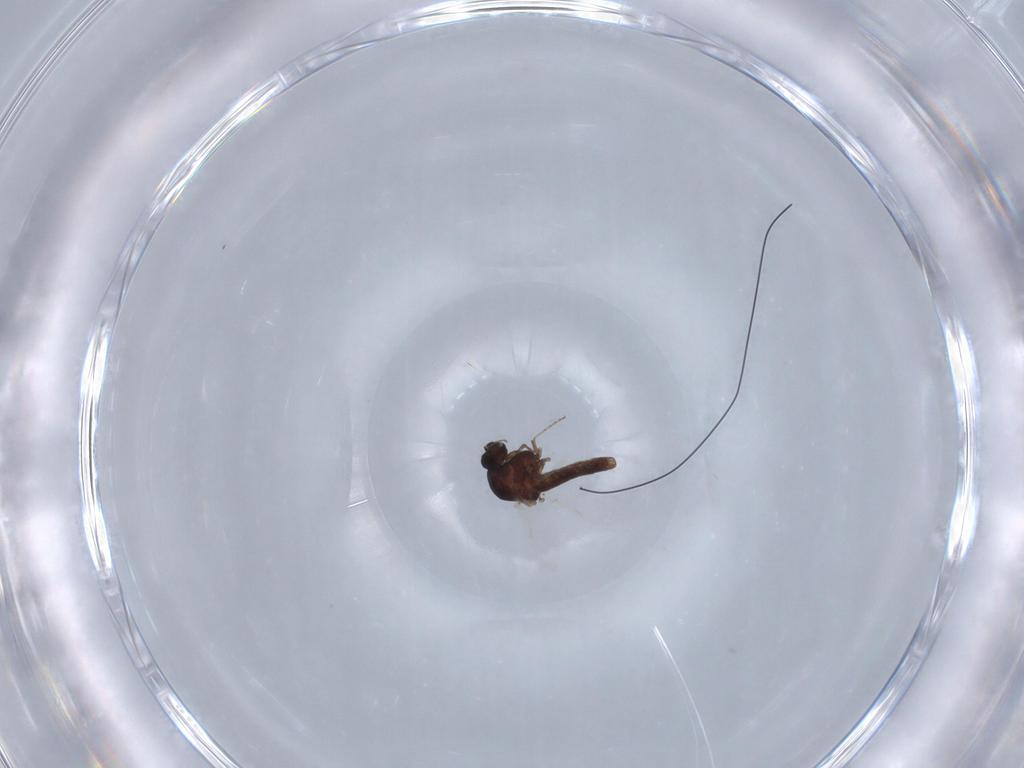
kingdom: Animalia
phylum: Arthropoda
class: Insecta
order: Diptera
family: Ceratopogonidae
